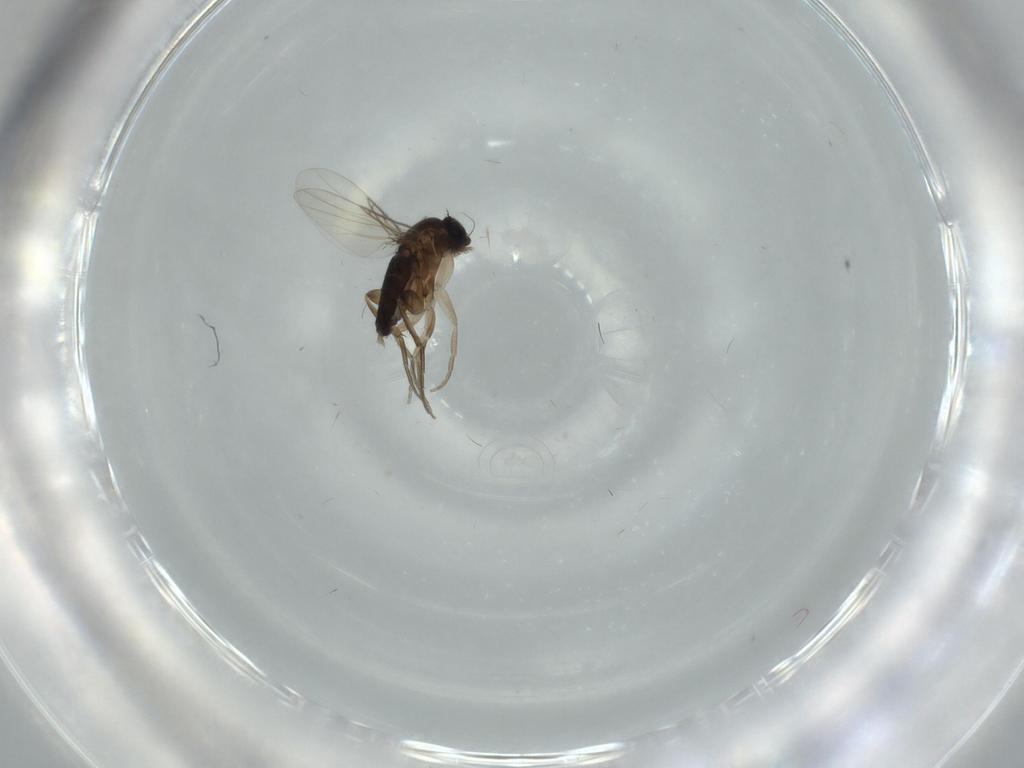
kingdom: Animalia
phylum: Arthropoda
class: Insecta
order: Diptera
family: Phoridae
